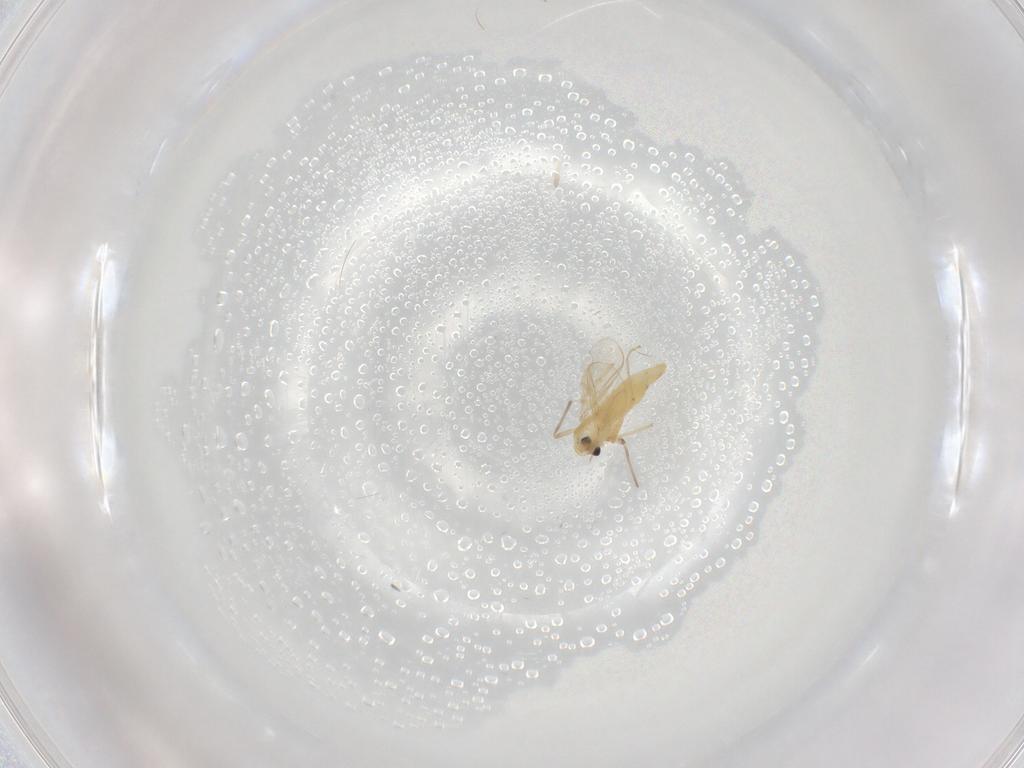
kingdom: Animalia
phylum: Arthropoda
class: Insecta
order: Diptera
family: Chironomidae
